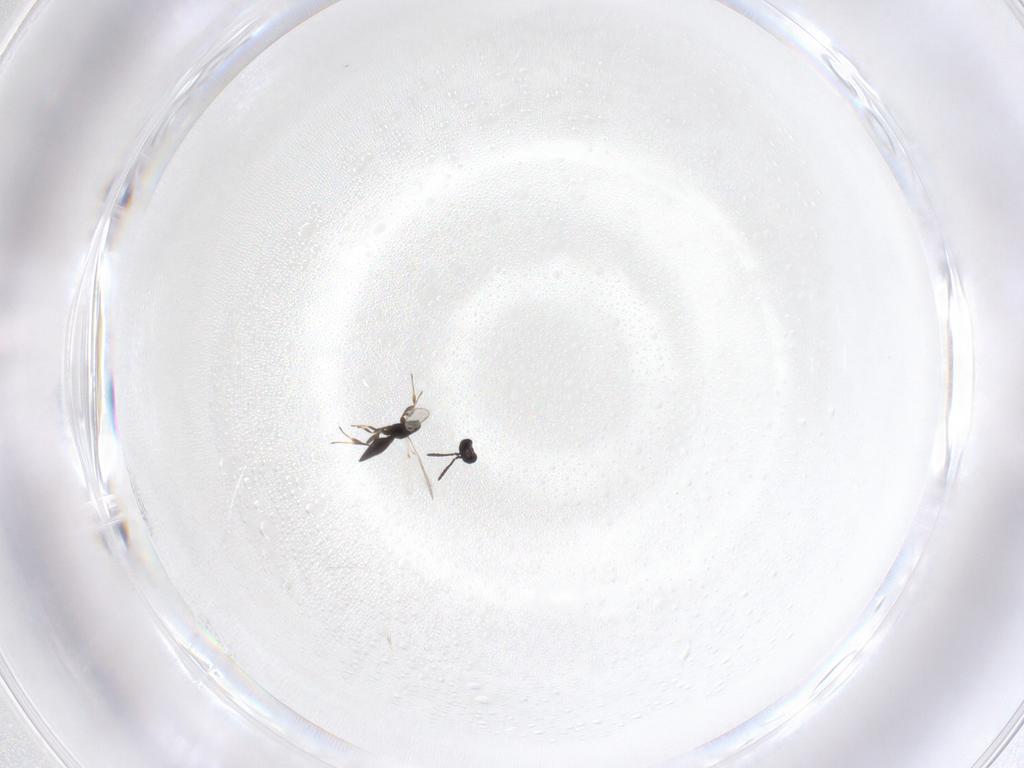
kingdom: Animalia
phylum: Arthropoda
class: Insecta
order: Hymenoptera
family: Scelionidae
